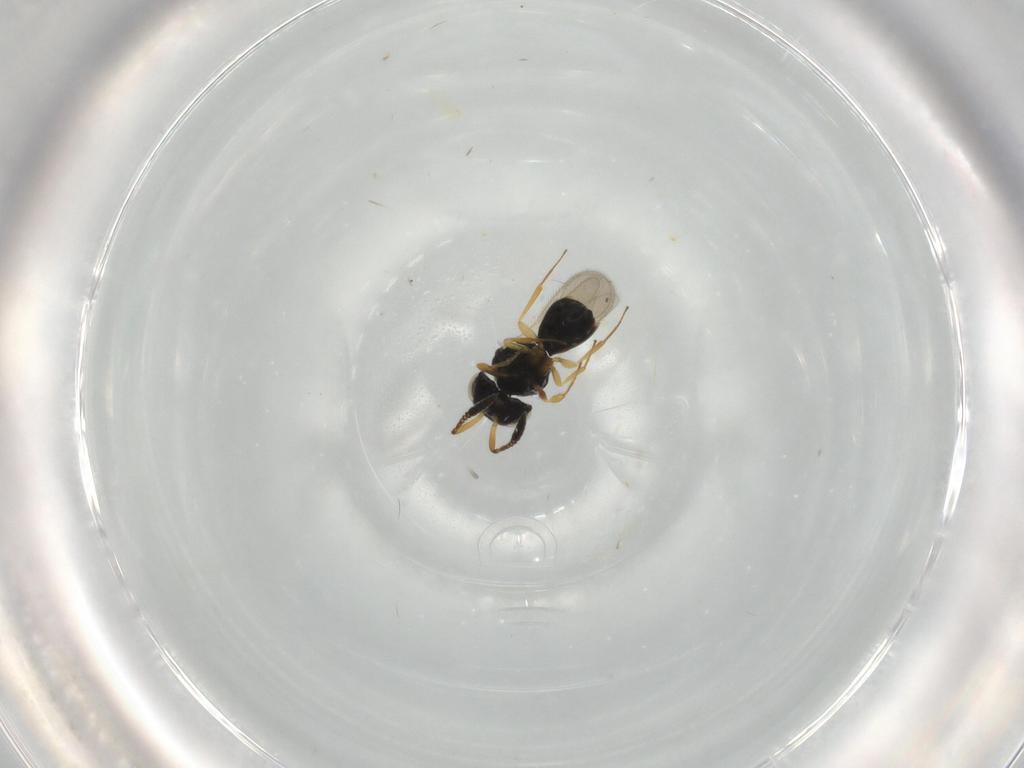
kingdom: Animalia
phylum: Arthropoda
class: Insecta
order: Hymenoptera
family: Scelionidae
